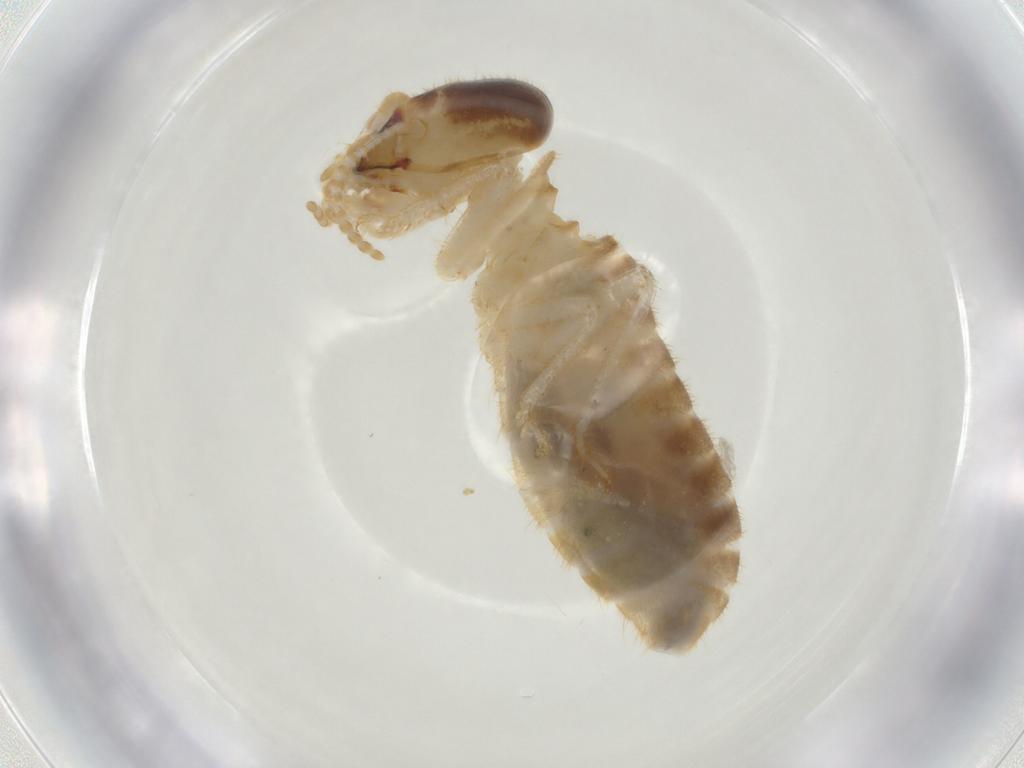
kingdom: Animalia
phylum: Arthropoda
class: Insecta
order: Blattodea
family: Termitidae
